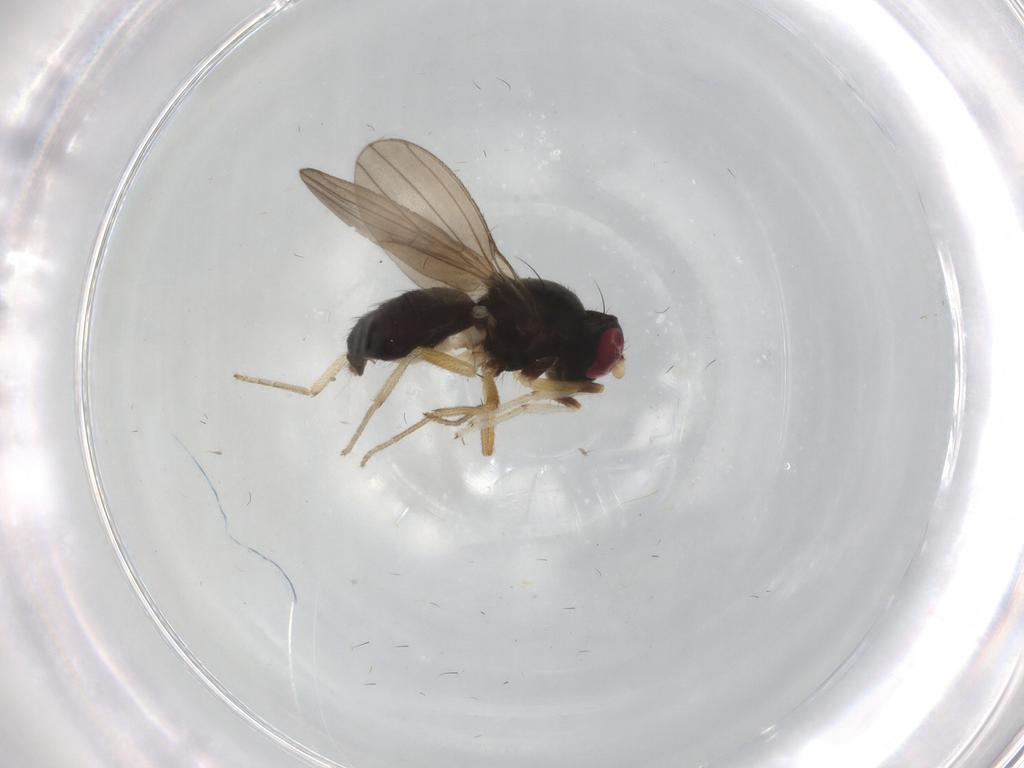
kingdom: Animalia
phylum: Arthropoda
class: Insecta
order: Diptera
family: Lauxaniidae
